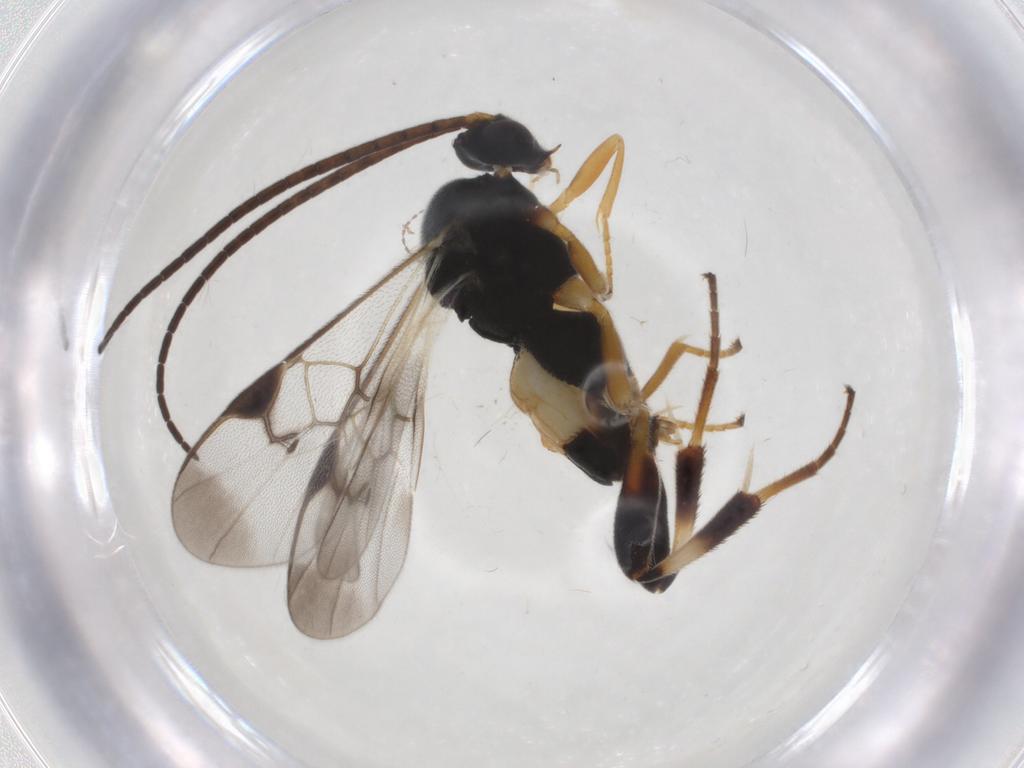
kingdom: Animalia
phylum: Arthropoda
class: Insecta
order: Hymenoptera
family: Braconidae
